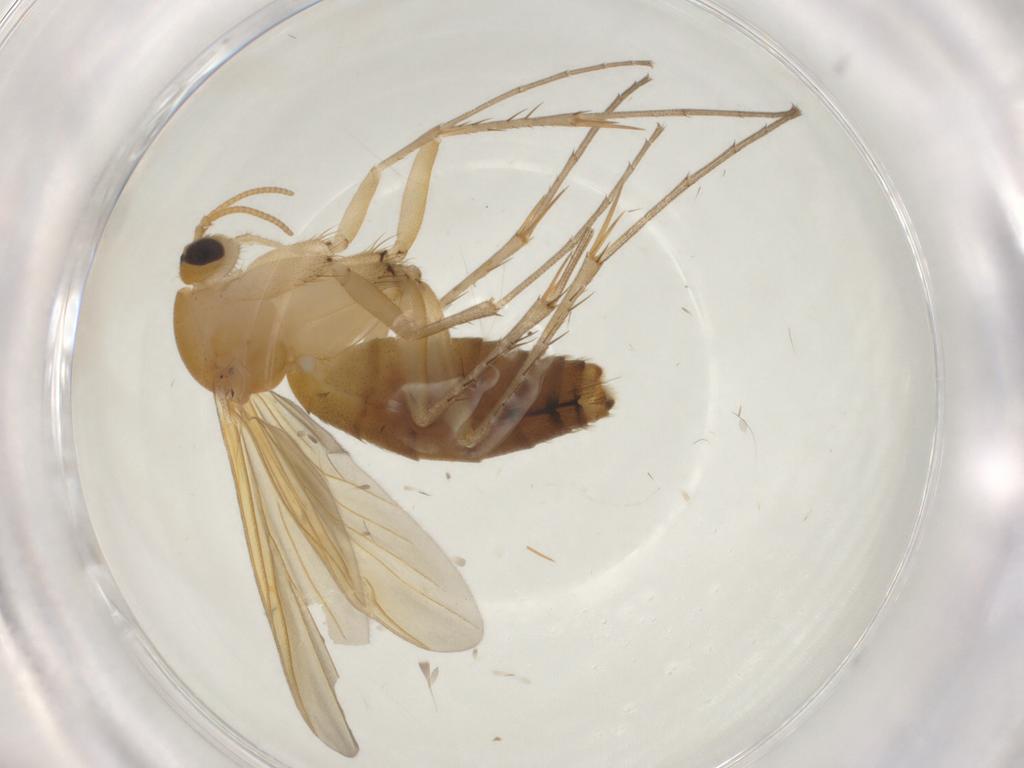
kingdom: Animalia
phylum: Arthropoda
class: Insecta
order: Diptera
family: Mycetophilidae
